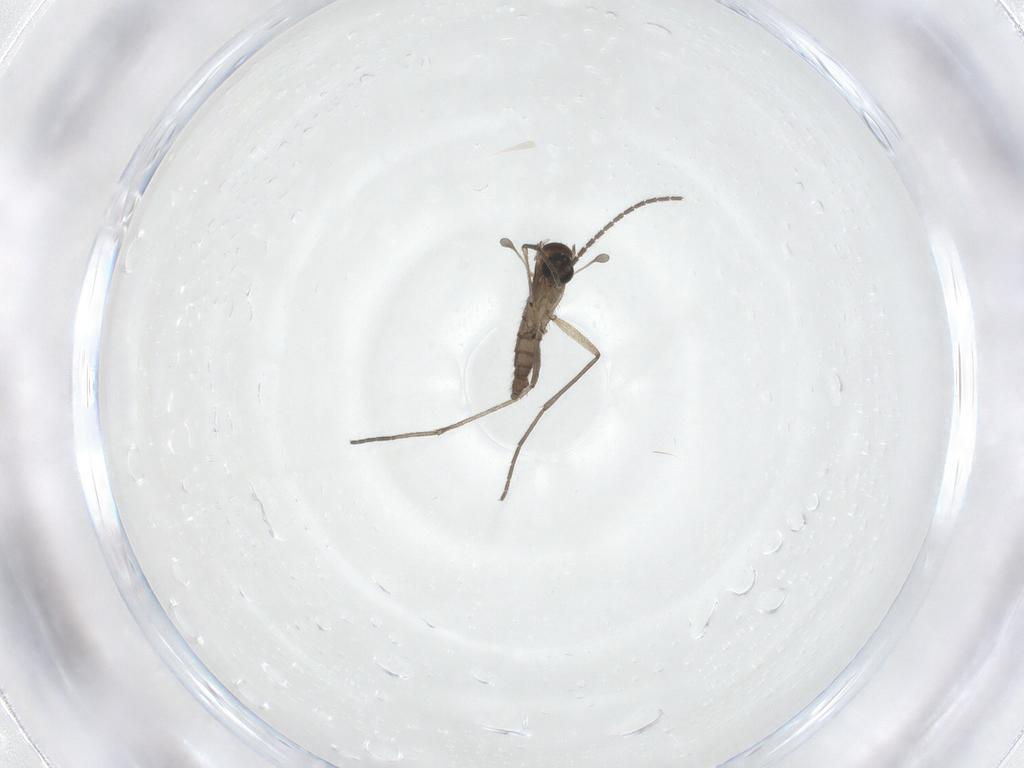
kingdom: Animalia
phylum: Arthropoda
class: Insecta
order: Diptera
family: Sciaridae
